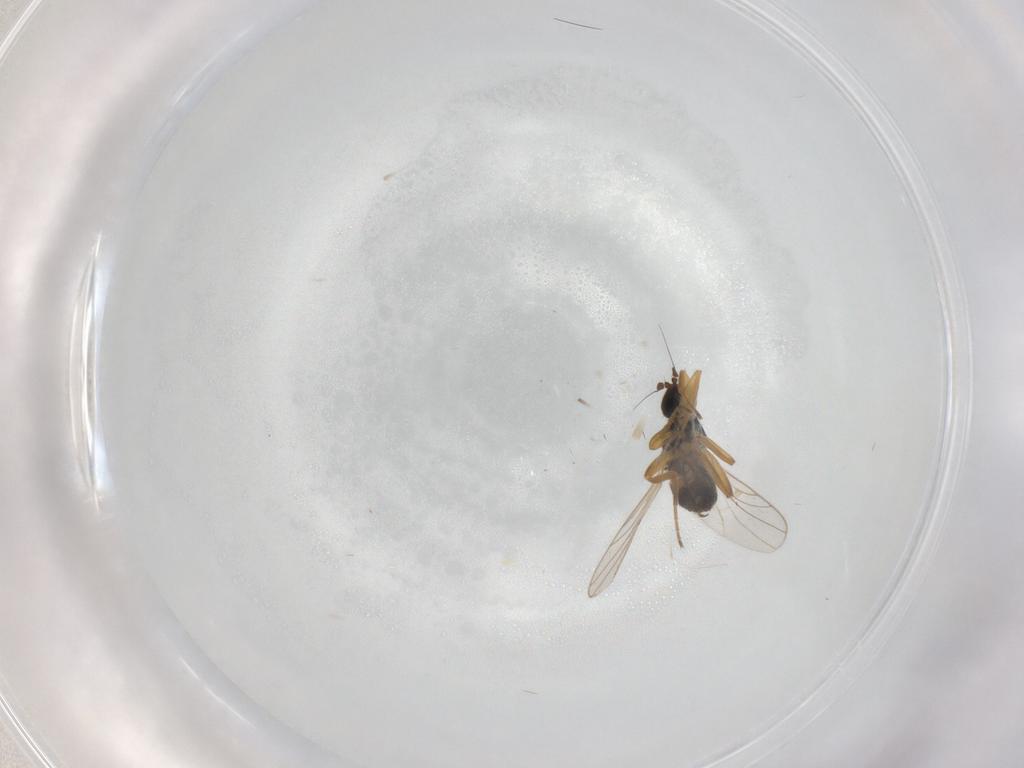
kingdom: Animalia
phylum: Arthropoda
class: Insecta
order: Diptera
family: Hybotidae
